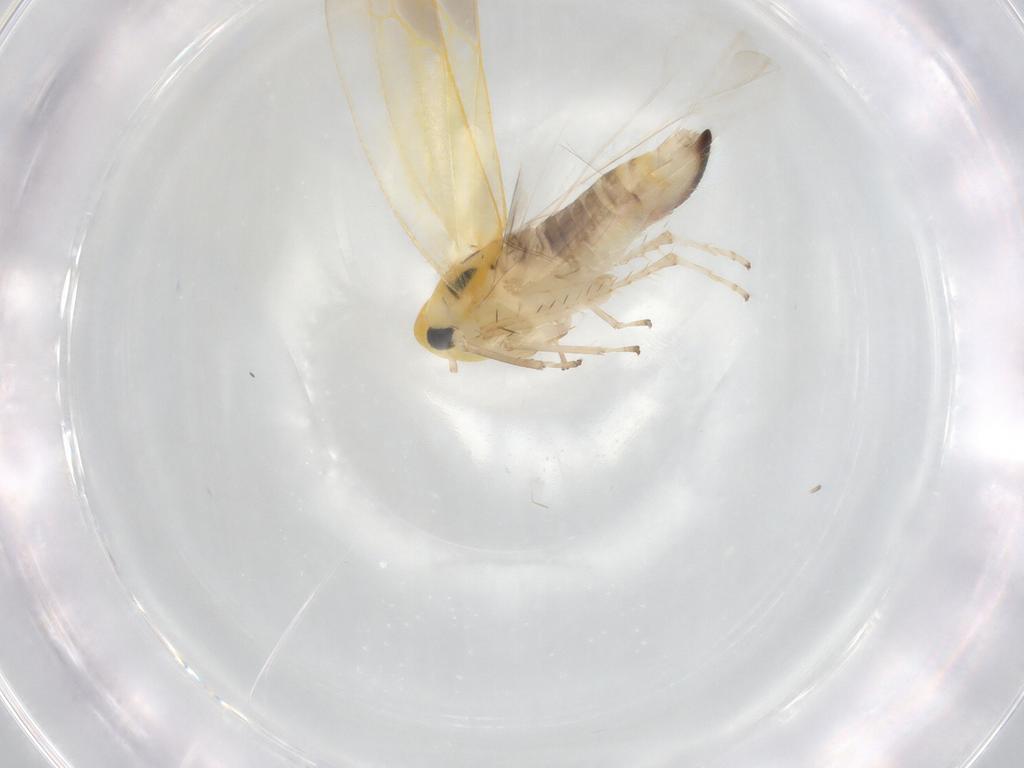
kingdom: Animalia
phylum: Arthropoda
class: Insecta
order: Hemiptera
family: Cicadellidae
